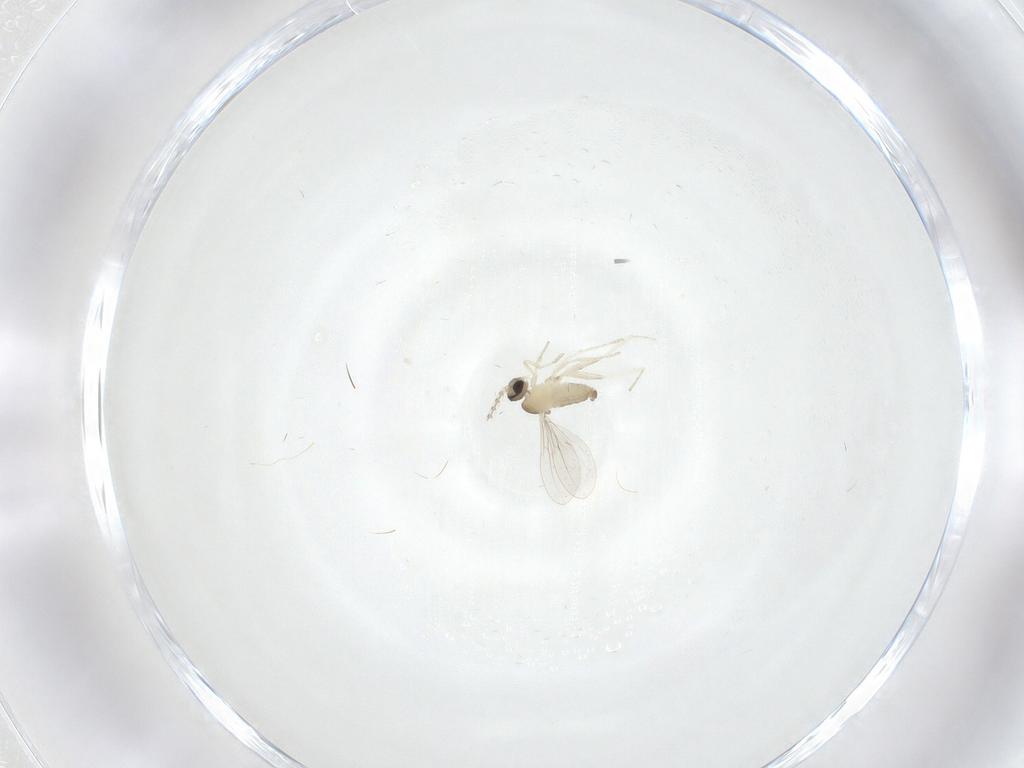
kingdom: Animalia
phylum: Arthropoda
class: Insecta
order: Diptera
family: Cecidomyiidae
